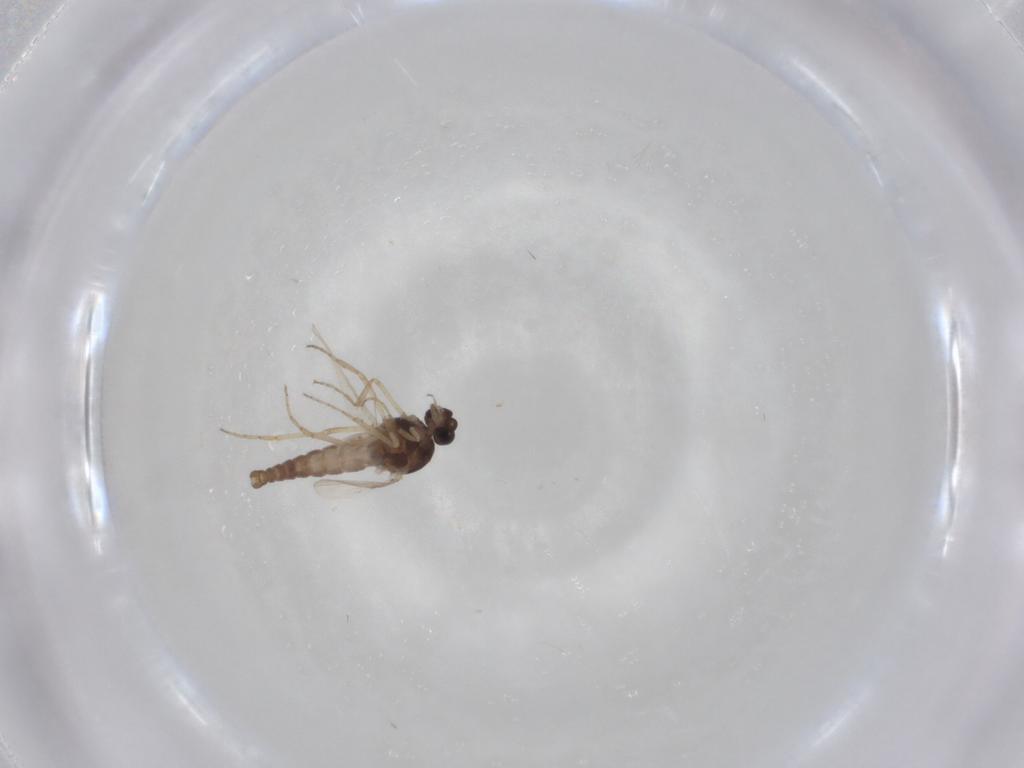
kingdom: Animalia
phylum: Arthropoda
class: Insecta
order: Diptera
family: Ceratopogonidae
